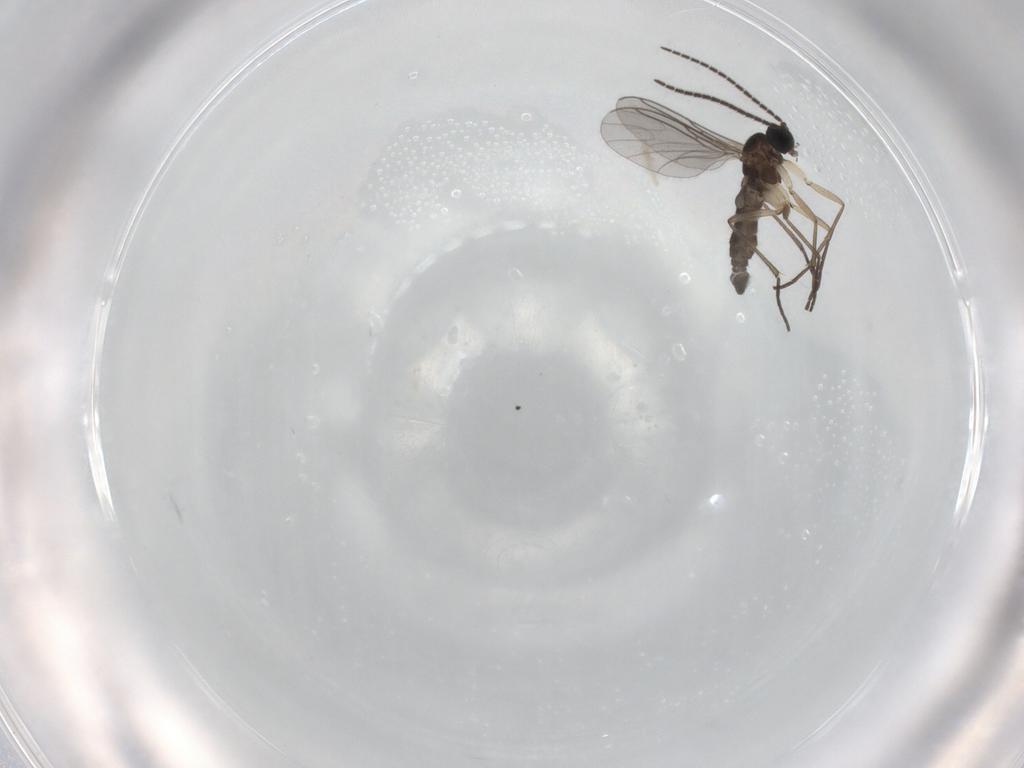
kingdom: Animalia
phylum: Arthropoda
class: Insecta
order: Diptera
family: Sciaridae
